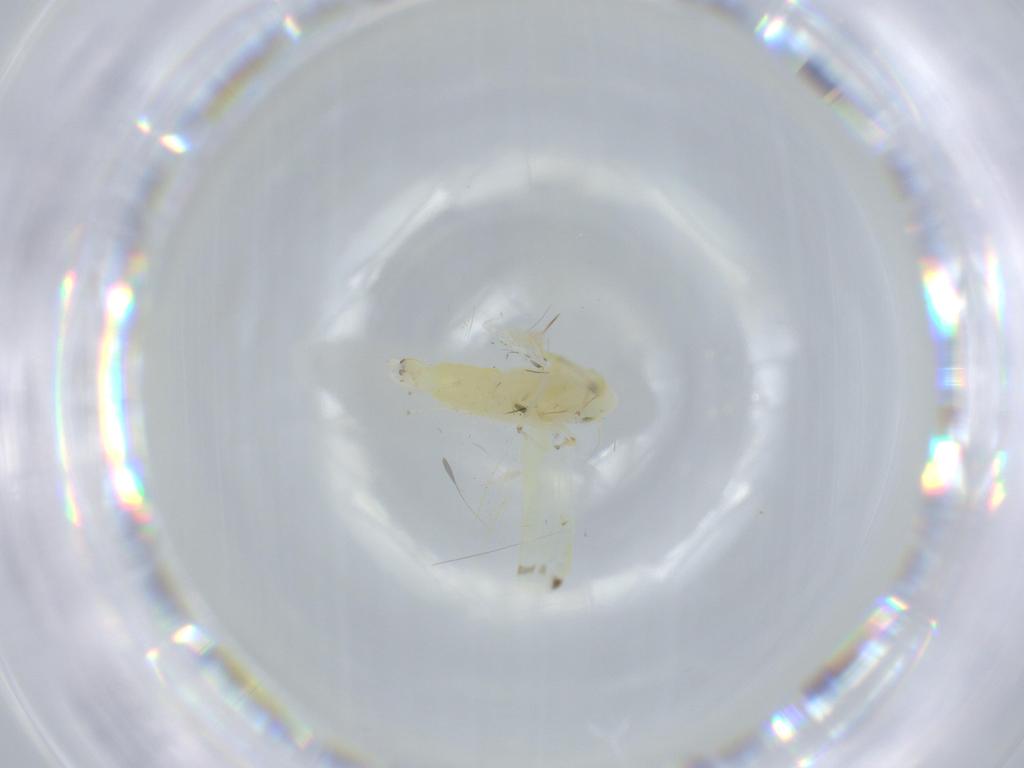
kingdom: Animalia
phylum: Arthropoda
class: Insecta
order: Hemiptera
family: Cicadellidae
